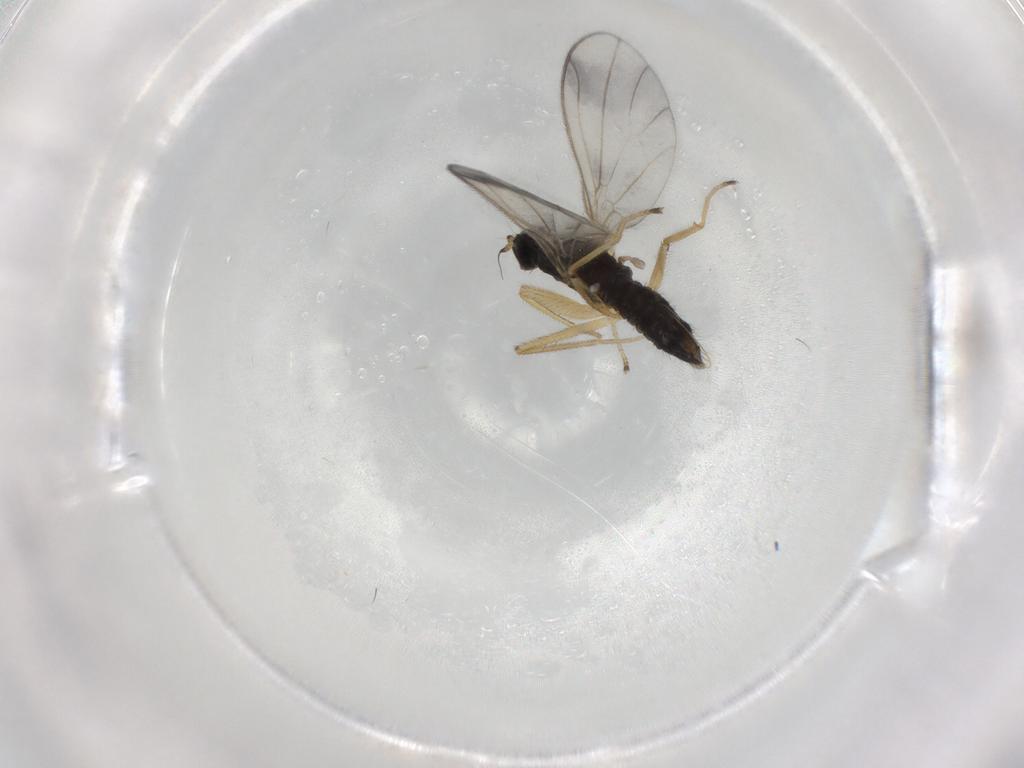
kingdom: Animalia
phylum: Arthropoda
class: Insecta
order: Diptera
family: Empididae
